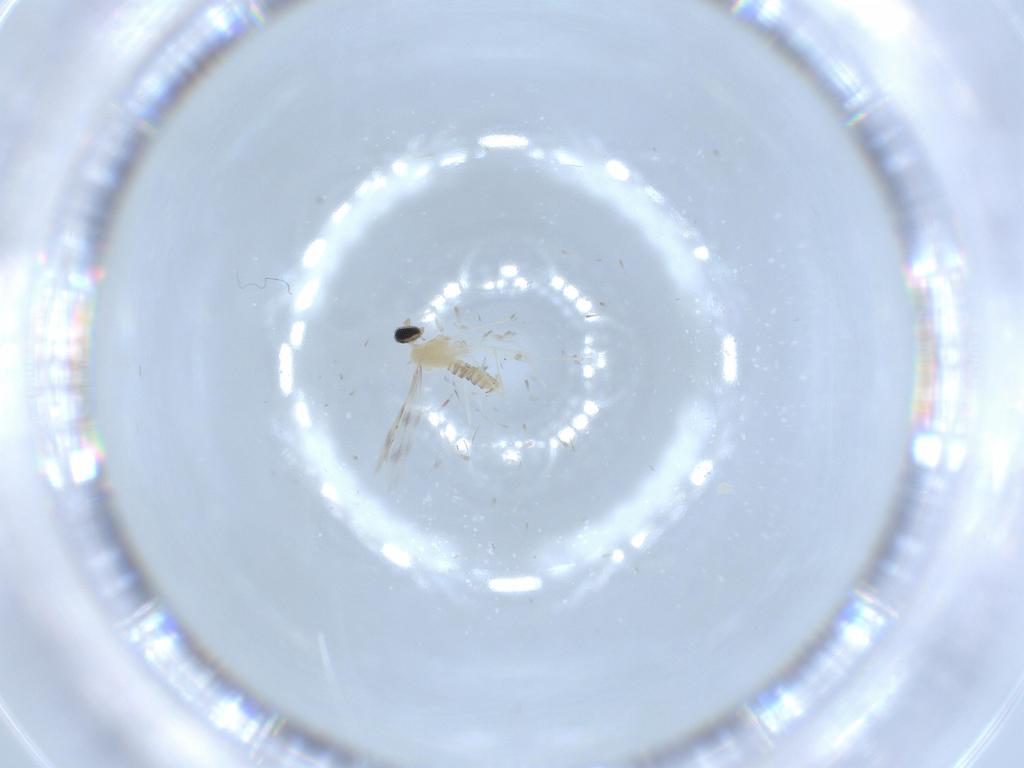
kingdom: Animalia
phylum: Arthropoda
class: Insecta
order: Diptera
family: Cecidomyiidae
